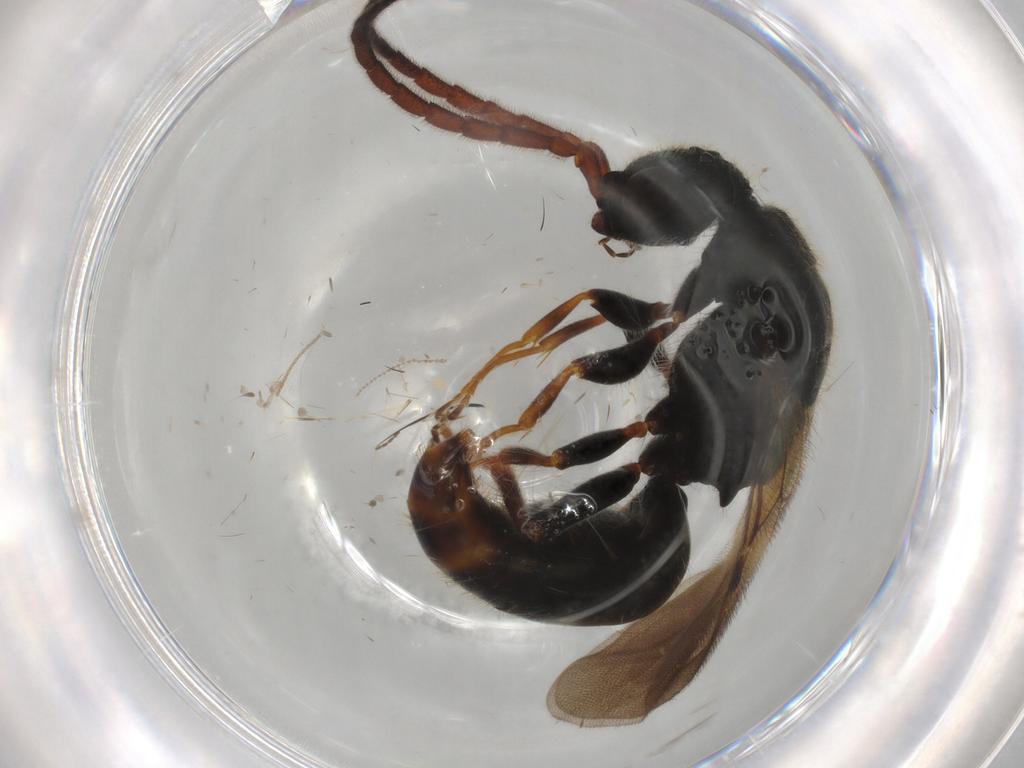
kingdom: Animalia
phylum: Arthropoda
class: Insecta
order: Hymenoptera
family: Bethylidae
